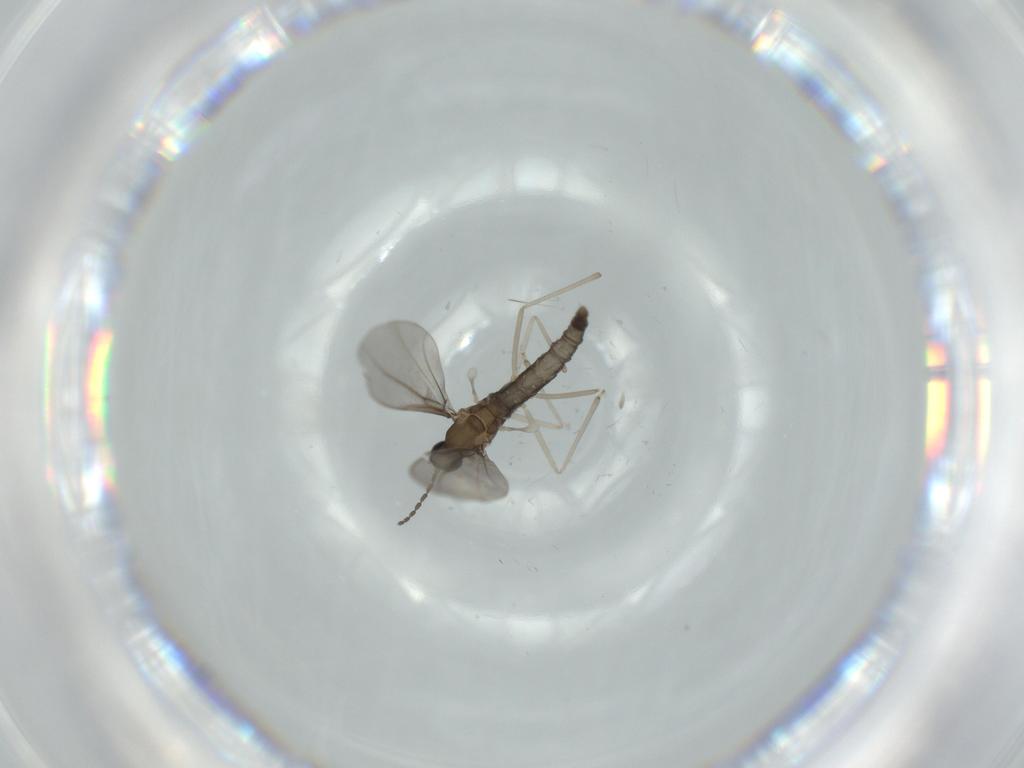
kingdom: Animalia
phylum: Arthropoda
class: Insecta
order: Diptera
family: Cecidomyiidae
